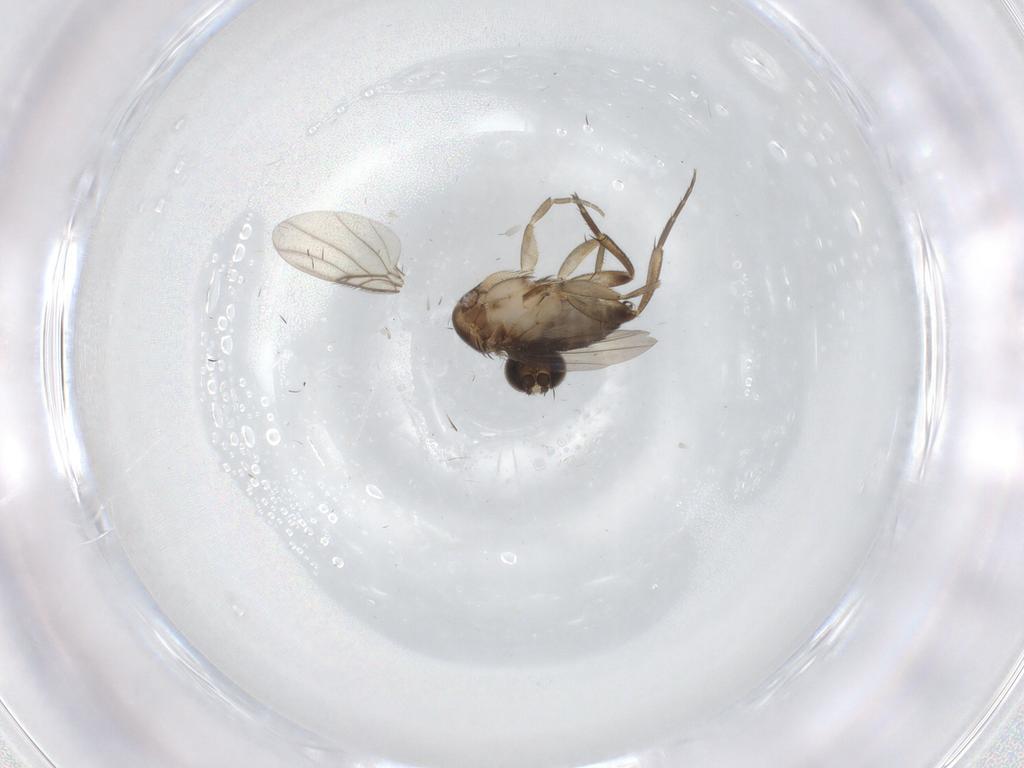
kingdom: Animalia
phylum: Arthropoda
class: Insecta
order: Diptera
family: Phoridae
